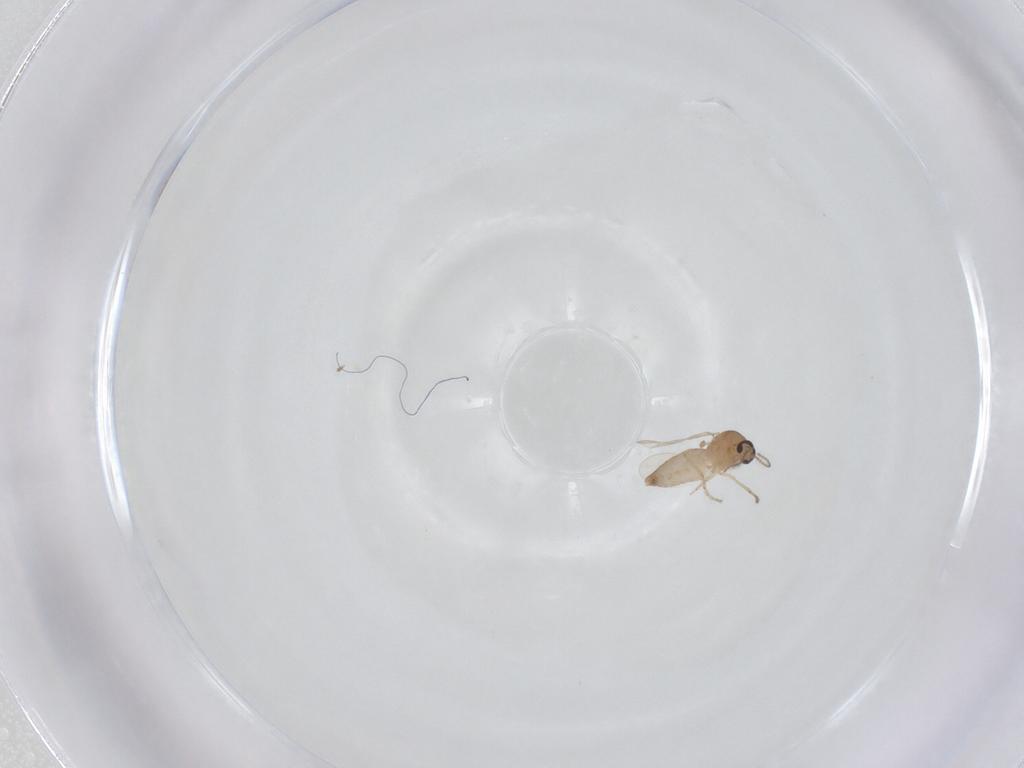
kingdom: Animalia
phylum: Arthropoda
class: Insecta
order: Diptera
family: Ceratopogonidae
